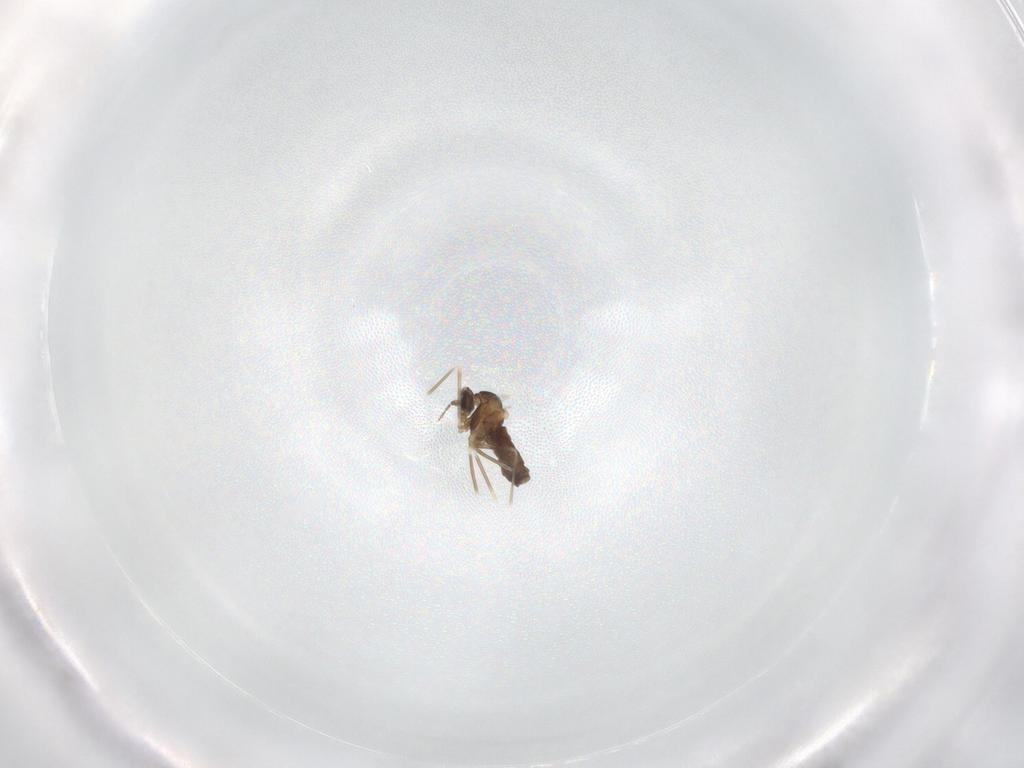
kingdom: Animalia
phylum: Arthropoda
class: Insecta
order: Diptera
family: Cecidomyiidae
